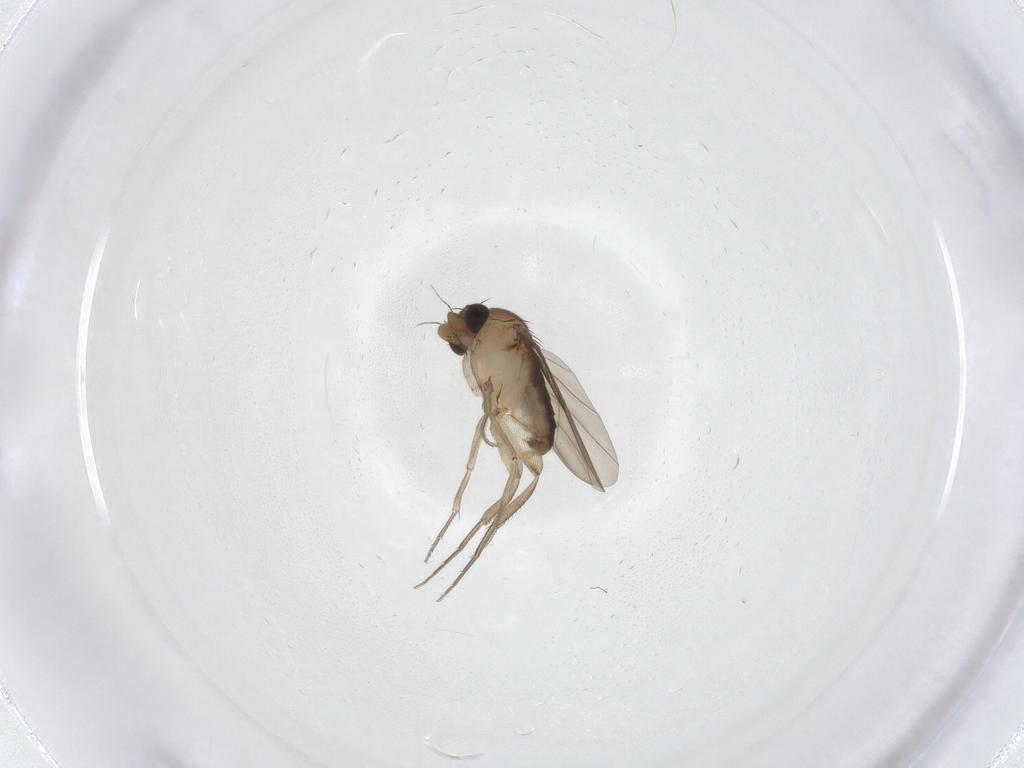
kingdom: Animalia
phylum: Arthropoda
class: Insecta
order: Diptera
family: Phoridae
